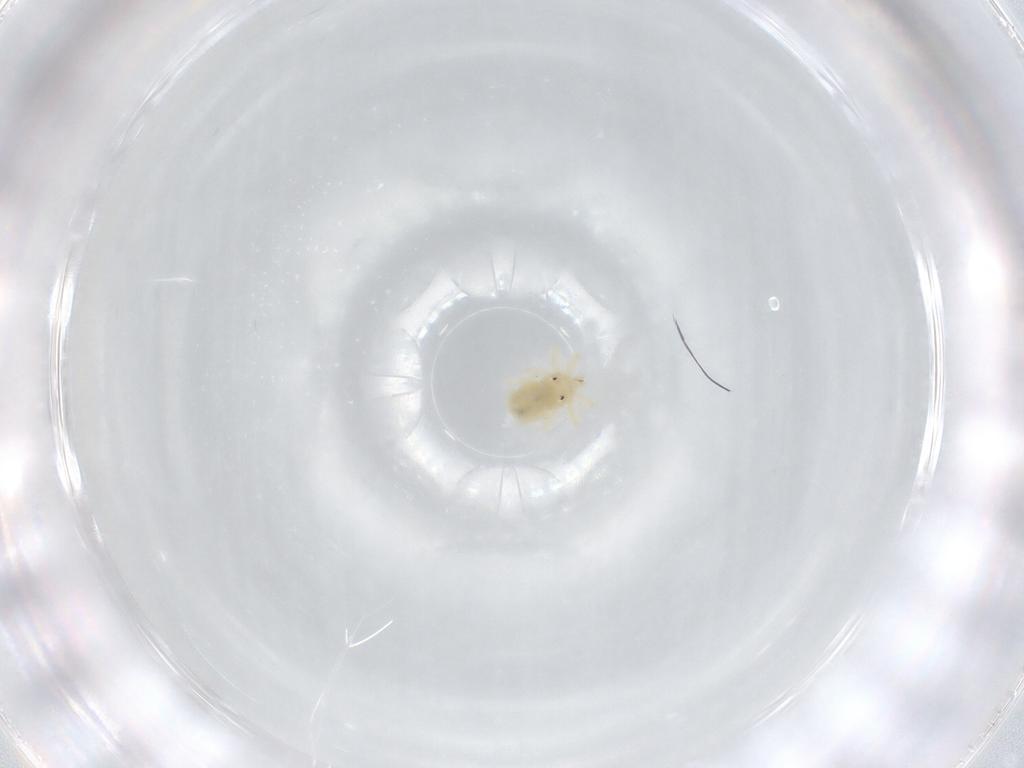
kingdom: Animalia
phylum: Arthropoda
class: Arachnida
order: Trombidiformes
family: Anystidae
